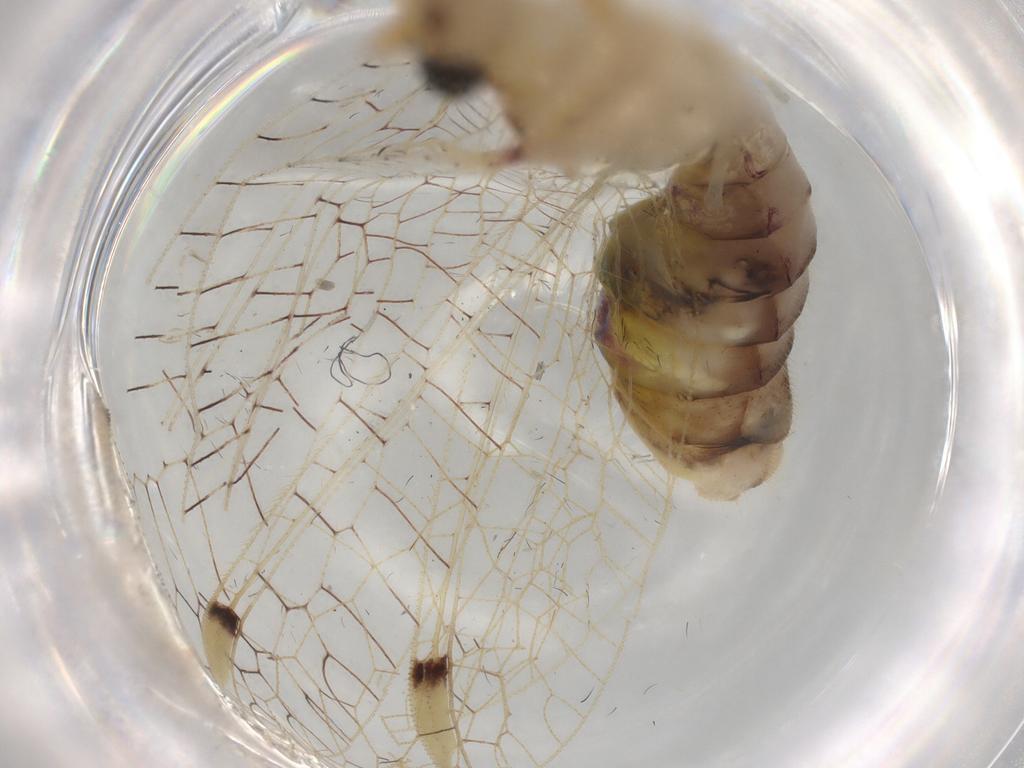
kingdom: Animalia
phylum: Arthropoda
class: Insecta
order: Neuroptera
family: Chrysopidae
